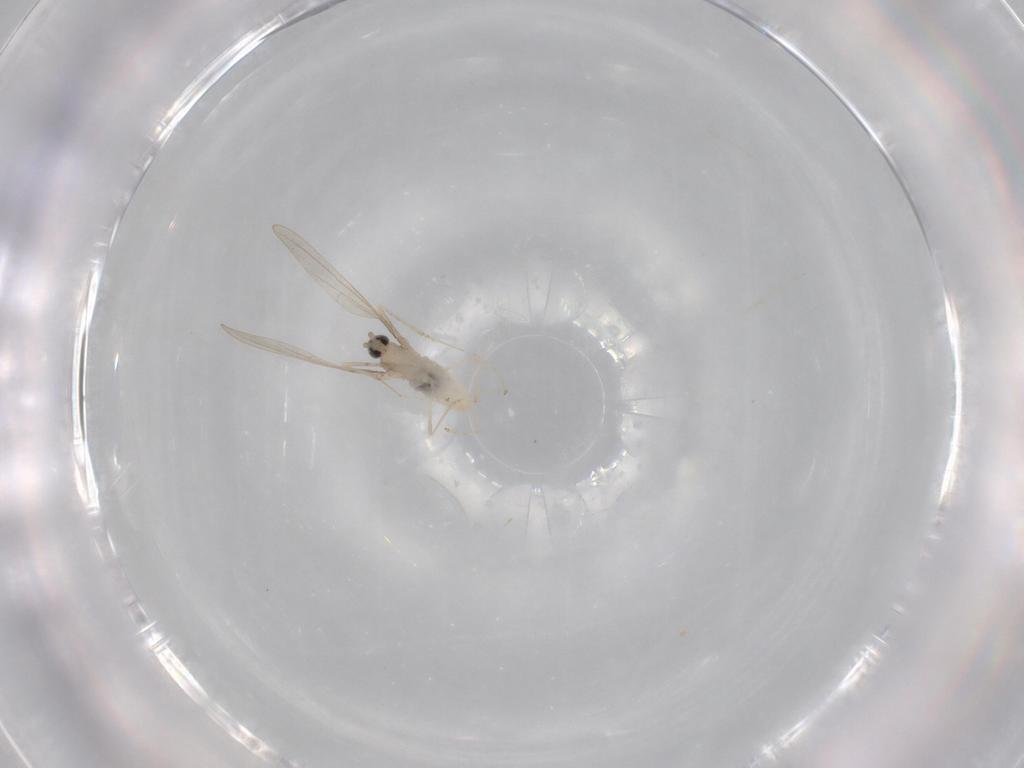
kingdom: Animalia
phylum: Arthropoda
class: Insecta
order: Diptera
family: Cecidomyiidae
